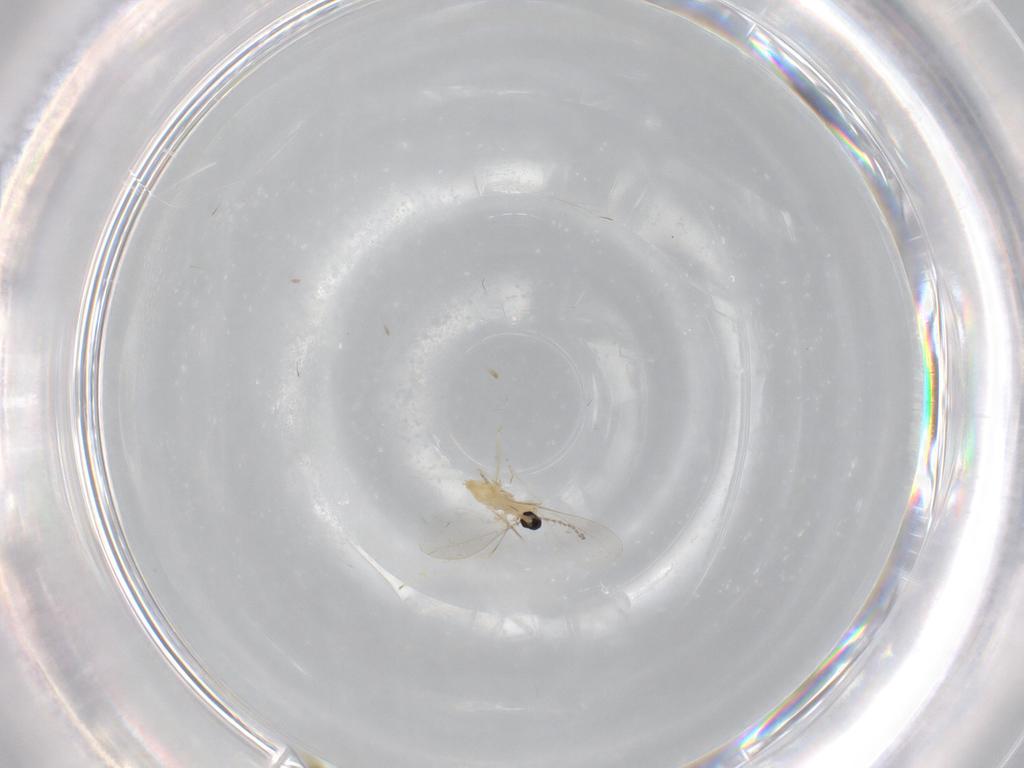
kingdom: Animalia
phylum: Arthropoda
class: Insecta
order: Diptera
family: Cecidomyiidae
